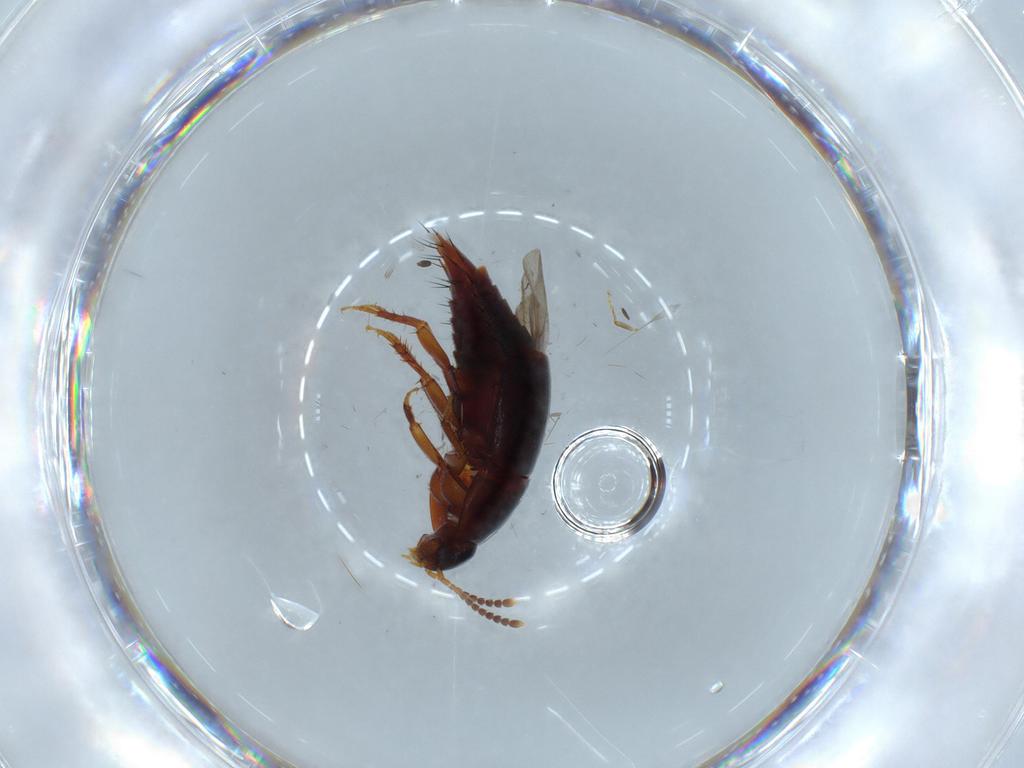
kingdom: Animalia
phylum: Arthropoda
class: Insecta
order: Coleoptera
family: Staphylinidae
